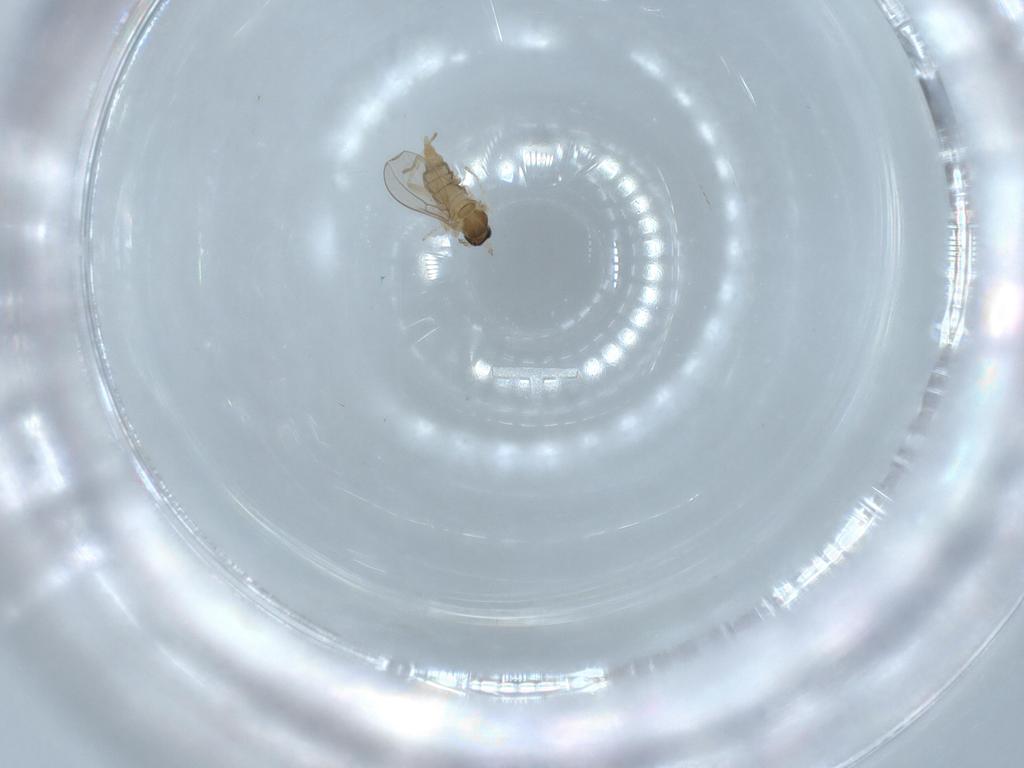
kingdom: Animalia
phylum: Arthropoda
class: Insecta
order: Diptera
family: Cecidomyiidae
